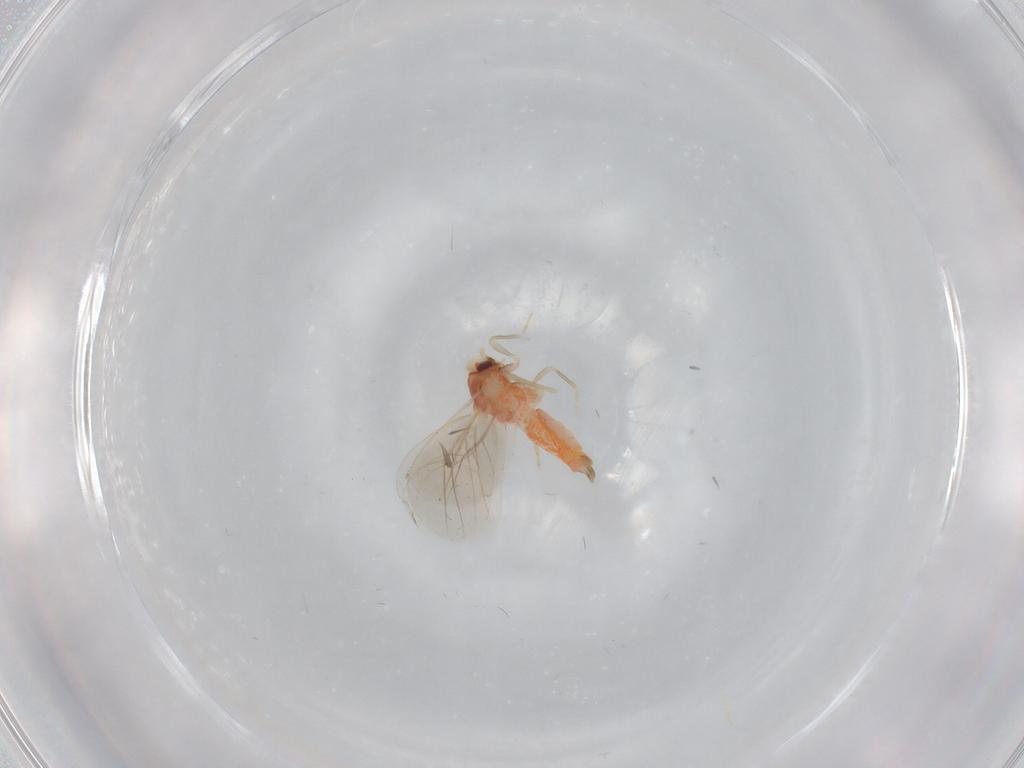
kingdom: Animalia
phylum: Arthropoda
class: Insecta
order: Hemiptera
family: Aleyrodidae
